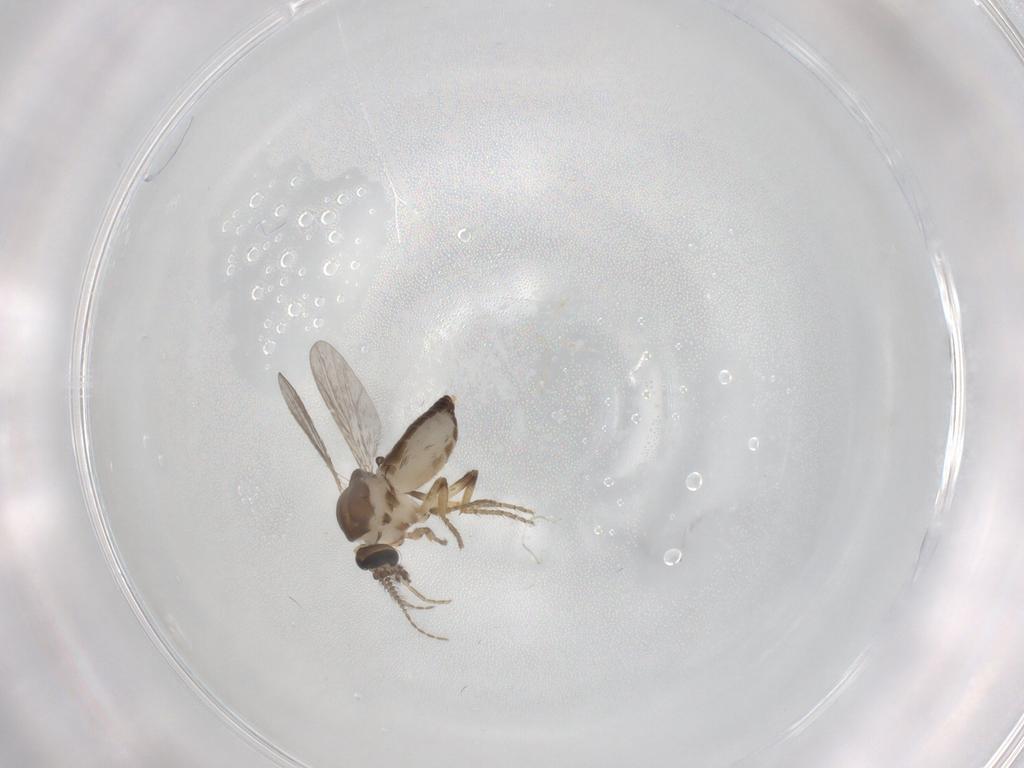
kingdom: Animalia
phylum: Arthropoda
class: Insecta
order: Diptera
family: Ceratopogonidae
